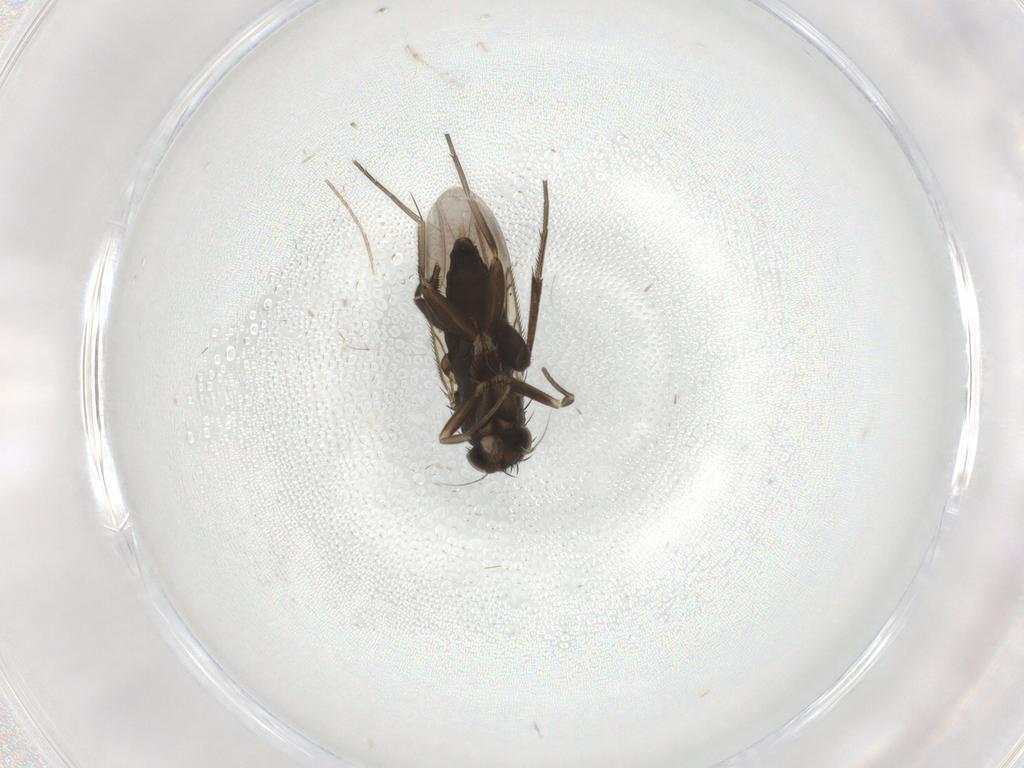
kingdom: Animalia
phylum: Arthropoda
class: Insecta
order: Diptera
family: Phoridae
